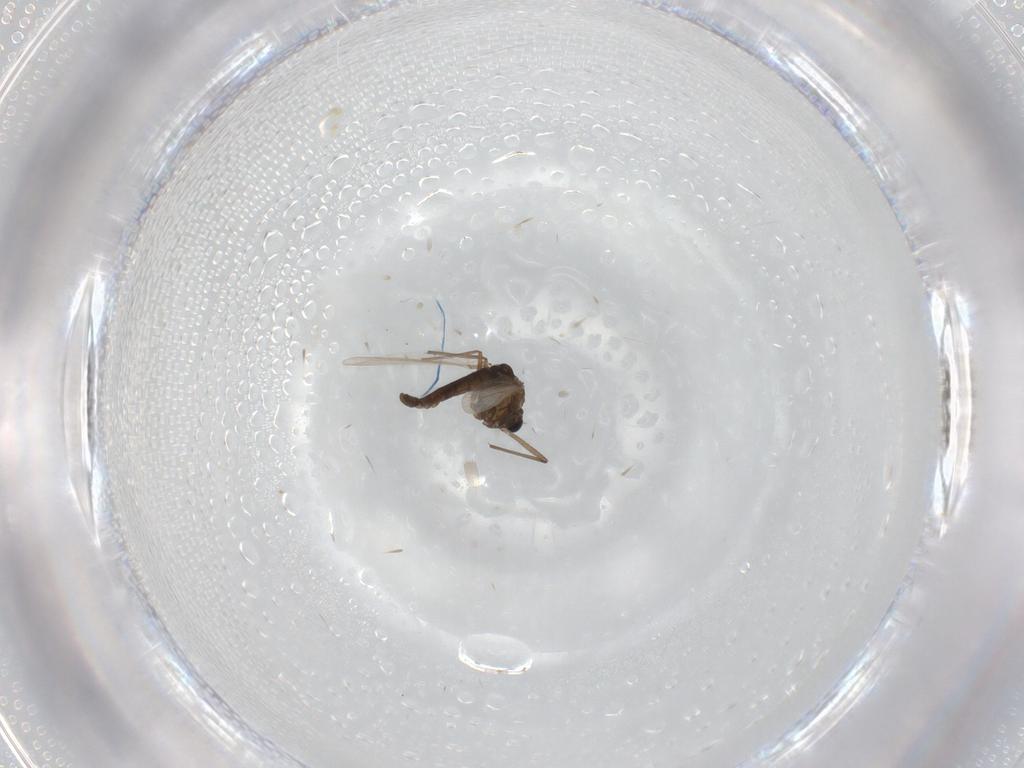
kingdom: Animalia
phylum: Arthropoda
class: Insecta
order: Diptera
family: Chironomidae
